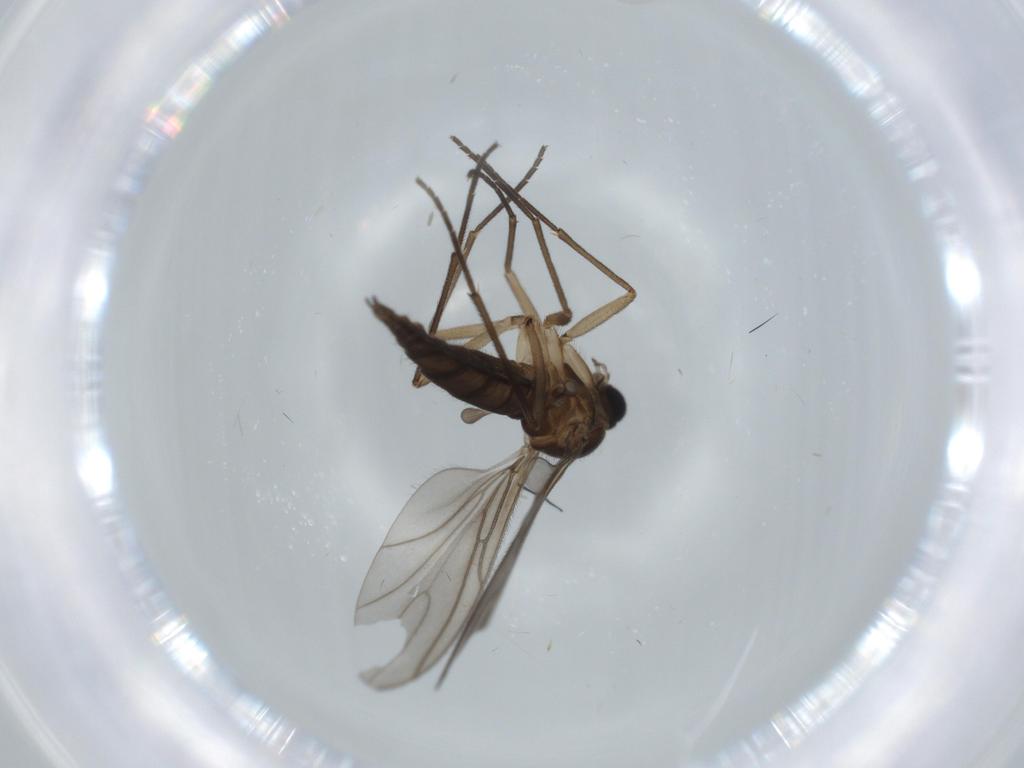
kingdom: Animalia
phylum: Arthropoda
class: Insecta
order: Diptera
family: Sciaridae
